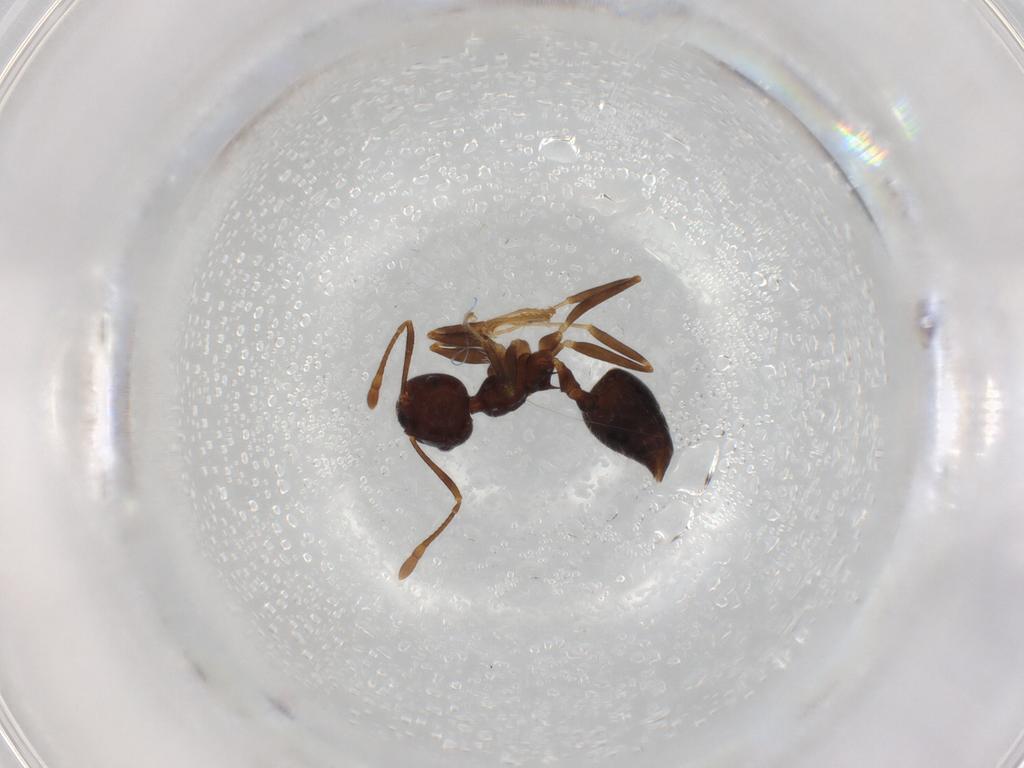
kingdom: Animalia
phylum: Arthropoda
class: Insecta
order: Hymenoptera
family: Formicidae
